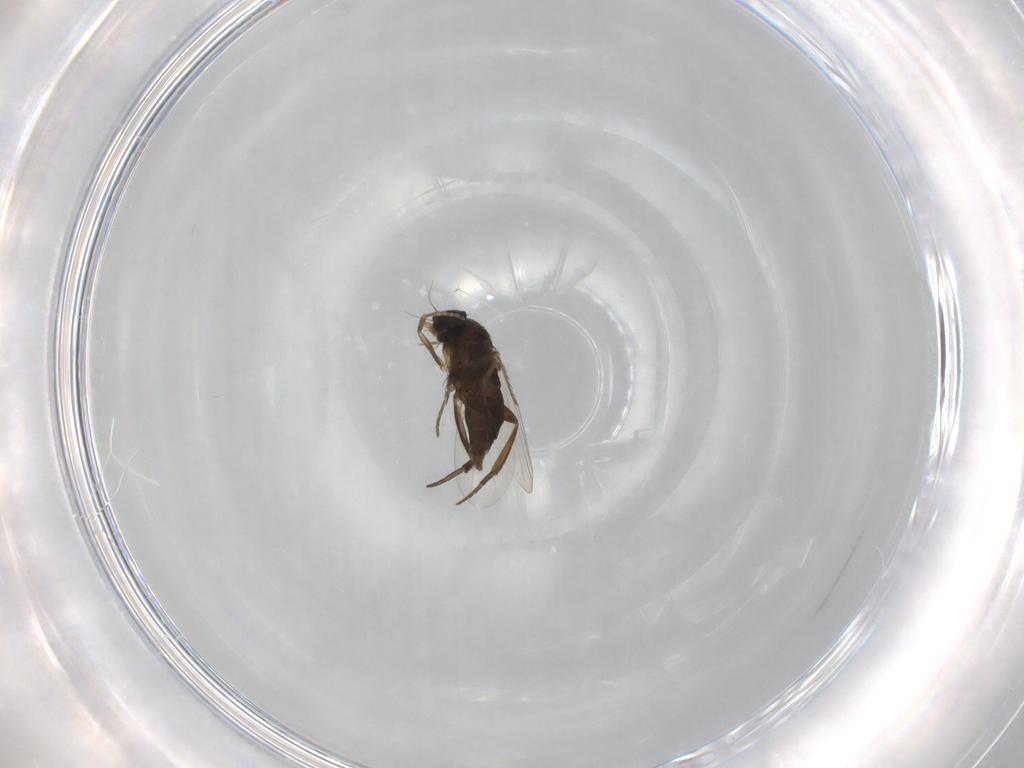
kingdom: Animalia
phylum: Arthropoda
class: Insecta
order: Diptera
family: Phoridae
